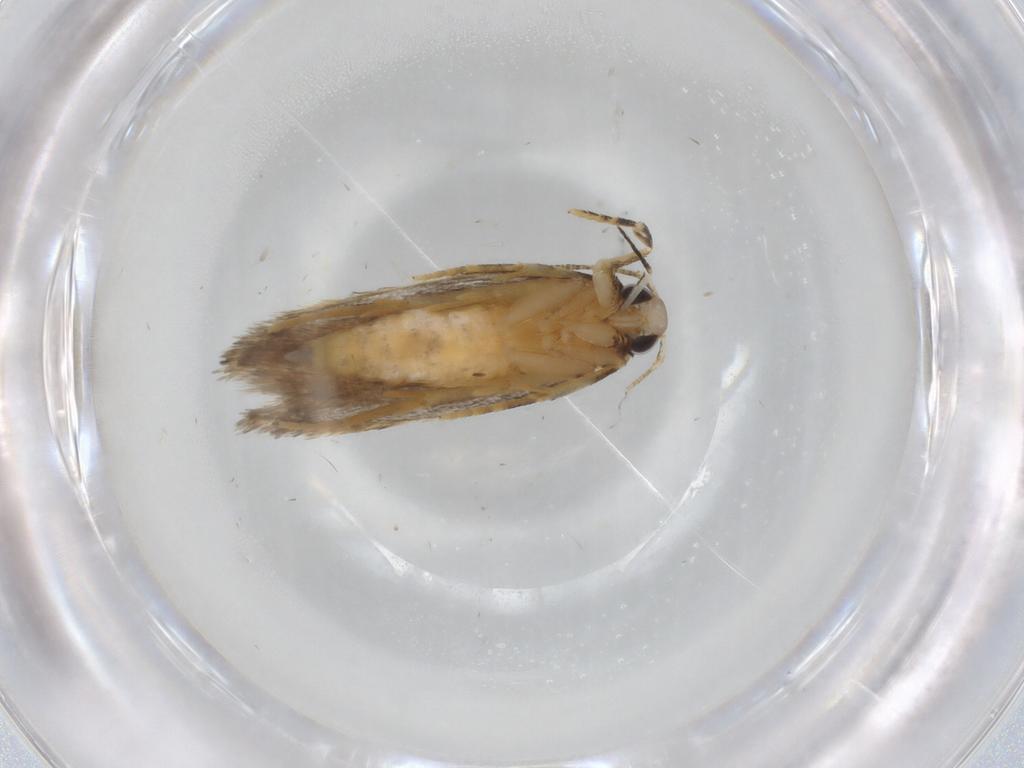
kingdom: Animalia
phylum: Arthropoda
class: Insecta
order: Lepidoptera
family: Autostichidae
